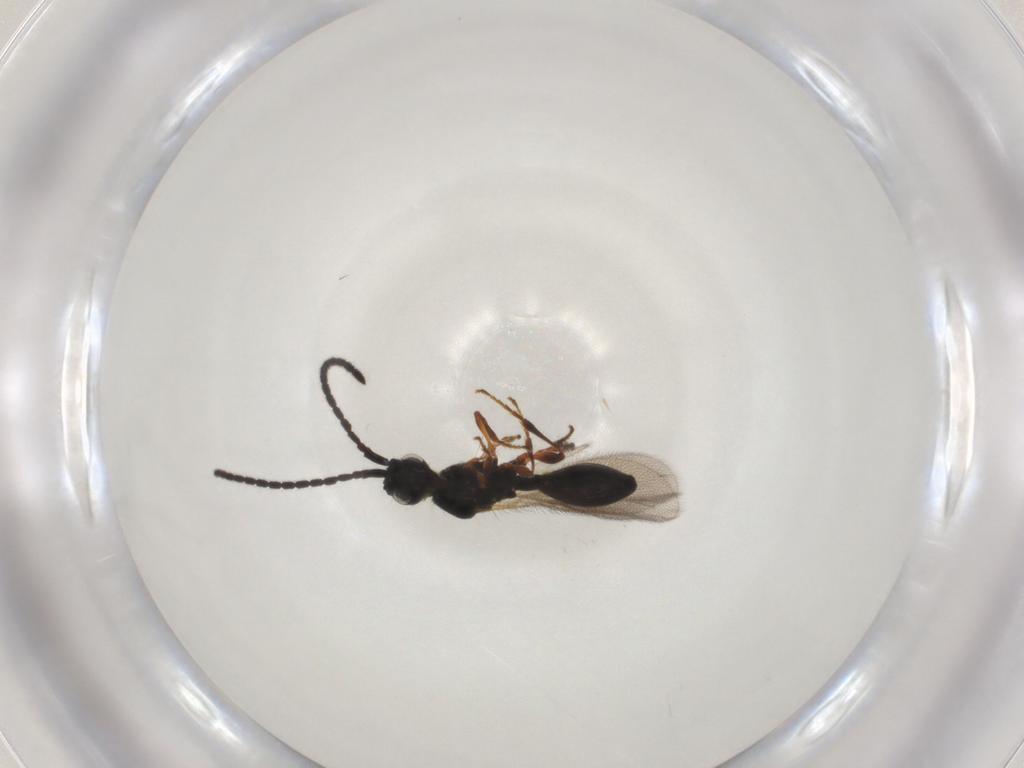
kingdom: Animalia
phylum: Arthropoda
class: Insecta
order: Hymenoptera
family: Diapriidae
